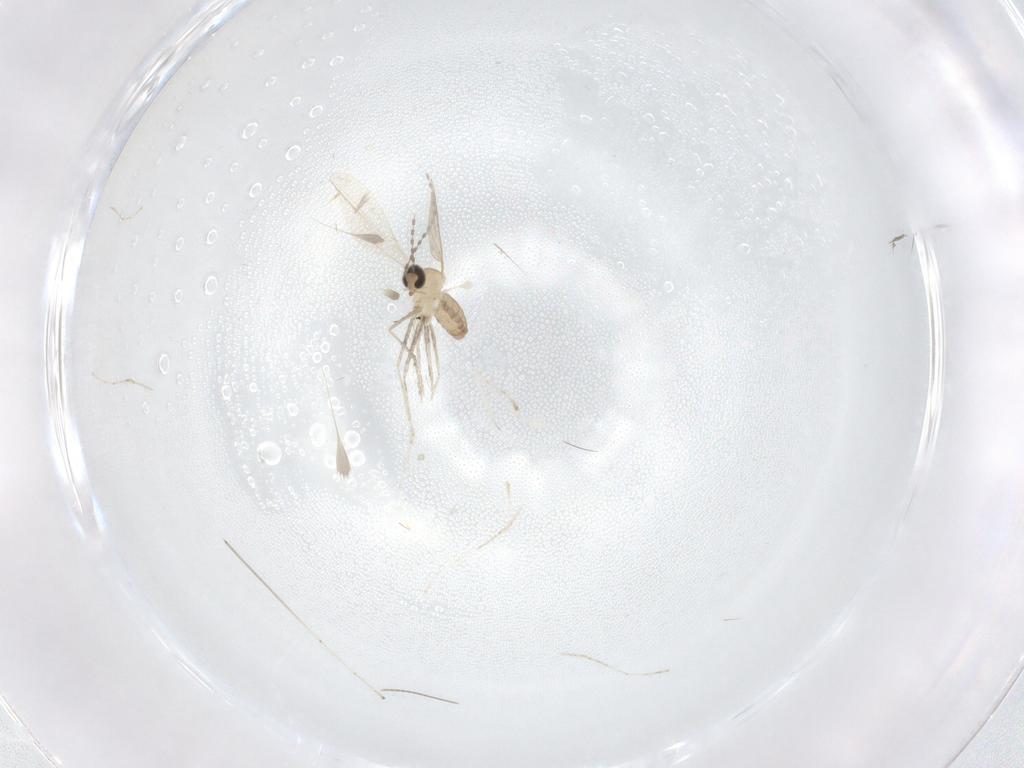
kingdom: Animalia
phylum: Arthropoda
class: Insecta
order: Diptera
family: Cecidomyiidae
